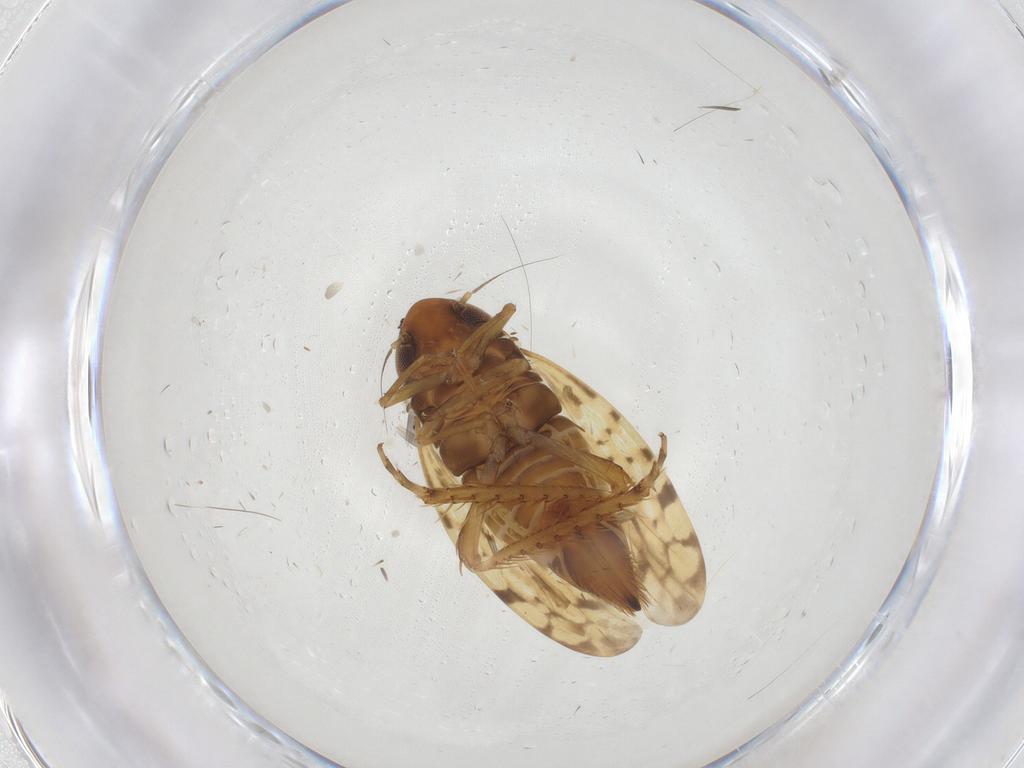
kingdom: Animalia
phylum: Arthropoda
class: Insecta
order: Hemiptera
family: Cicadellidae
